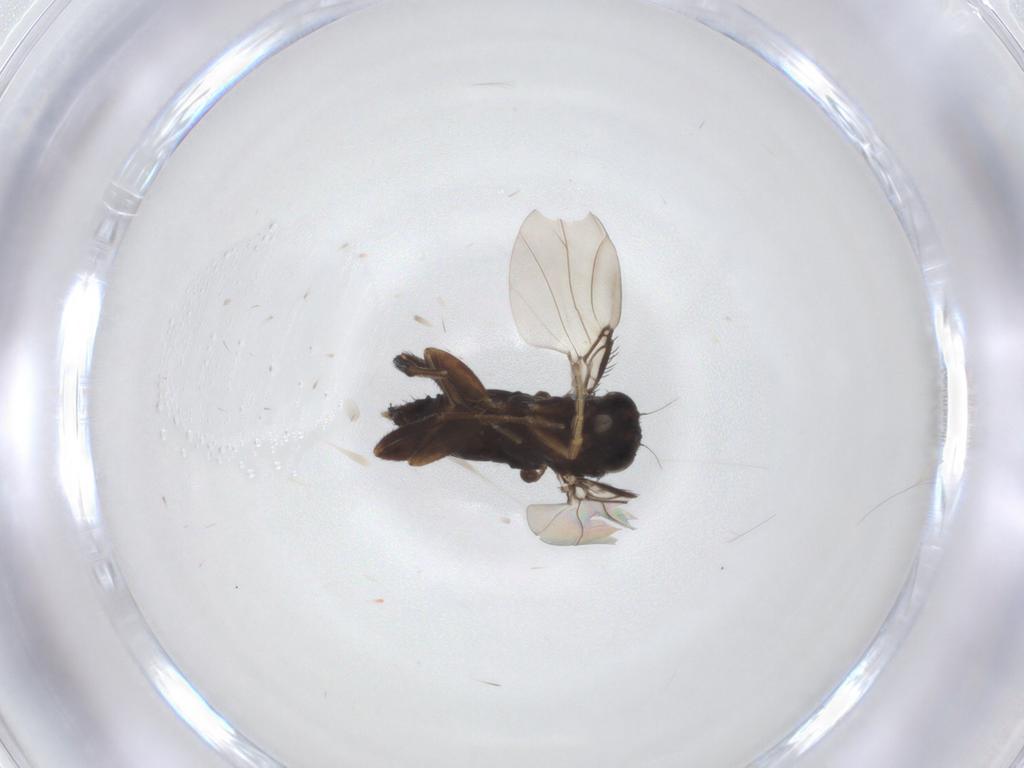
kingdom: Animalia
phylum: Arthropoda
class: Insecta
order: Diptera
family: Phoridae
